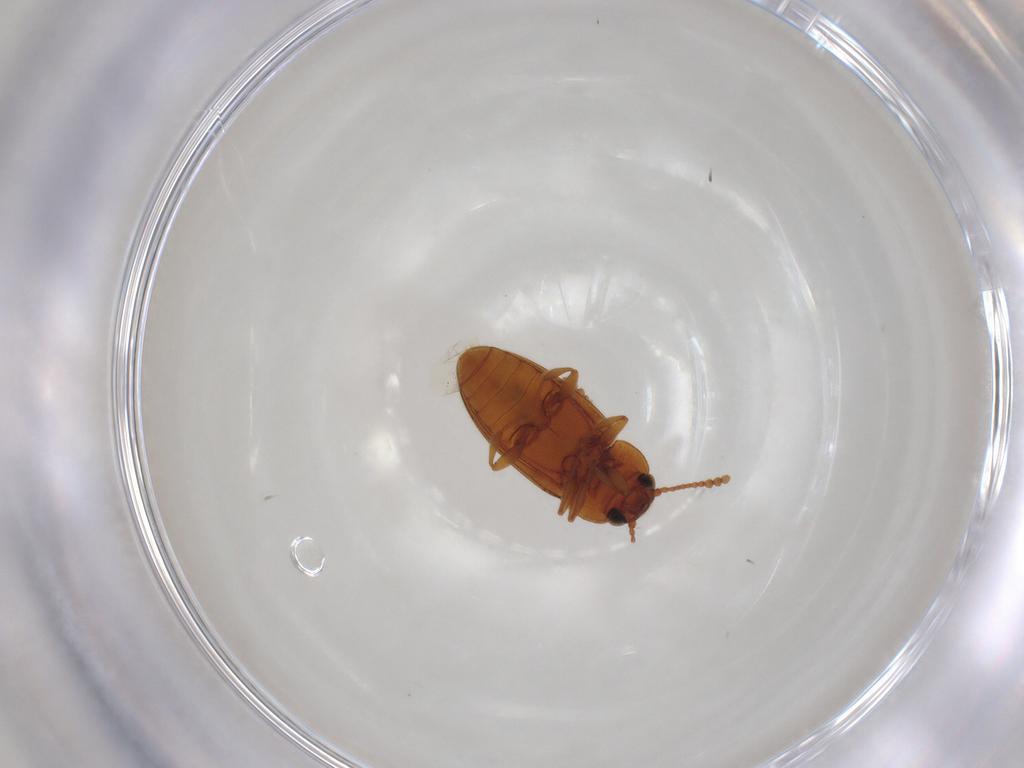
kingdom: Animalia
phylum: Arthropoda
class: Insecta
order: Coleoptera
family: Erotylidae
